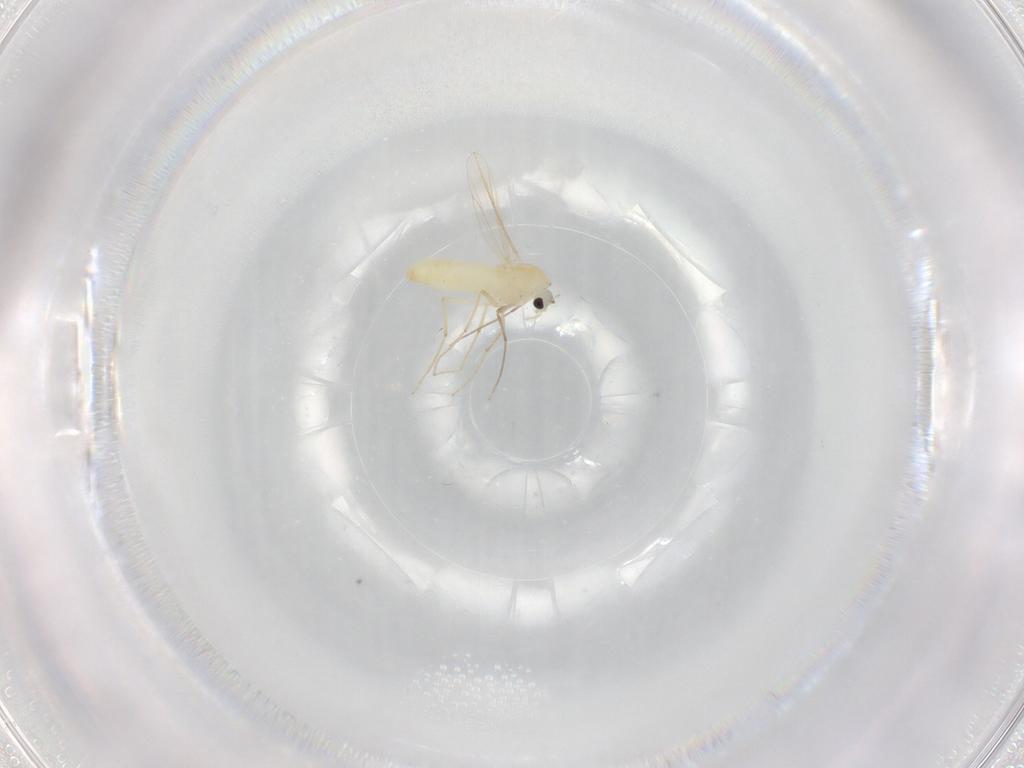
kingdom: Animalia
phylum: Arthropoda
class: Insecta
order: Diptera
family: Chironomidae
